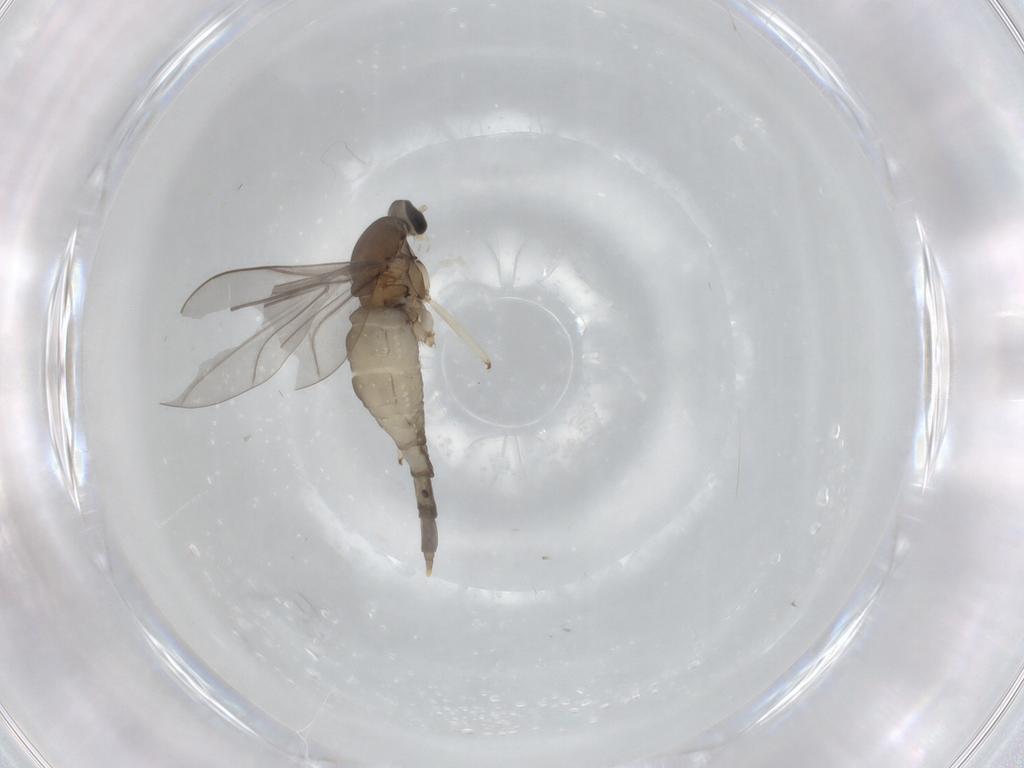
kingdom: Animalia
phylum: Arthropoda
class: Insecta
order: Diptera
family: Cecidomyiidae
